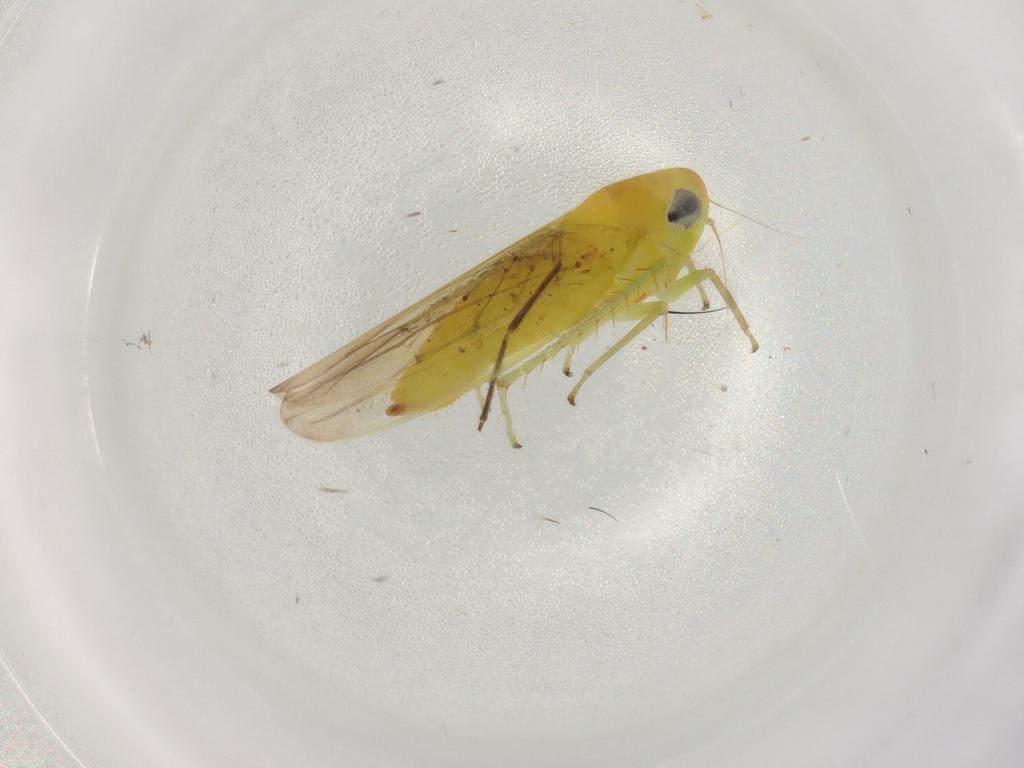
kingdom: Animalia
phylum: Arthropoda
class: Insecta
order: Hemiptera
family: Cicadellidae
